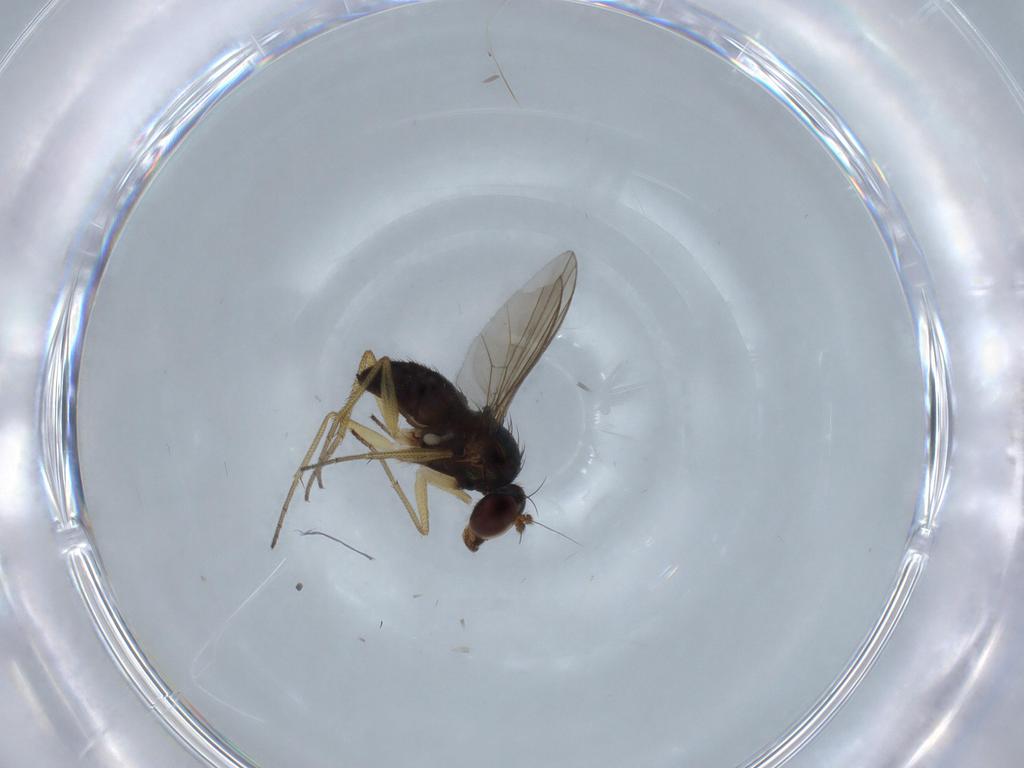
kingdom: Animalia
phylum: Arthropoda
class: Insecta
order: Diptera
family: Dolichopodidae
